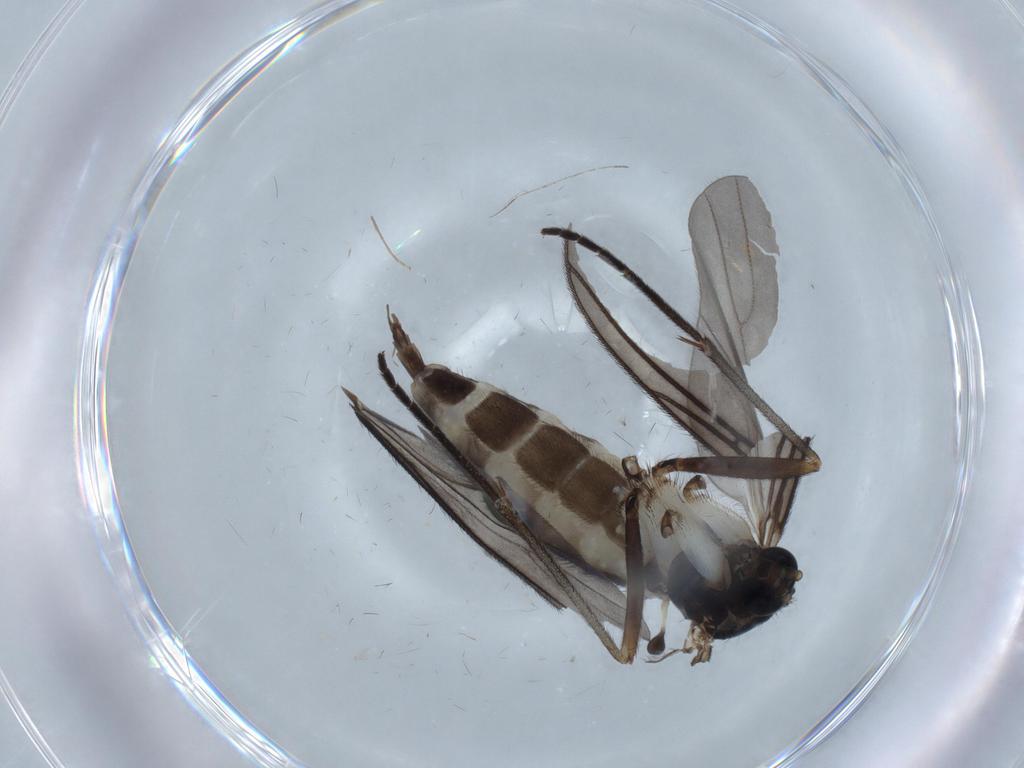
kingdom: Animalia
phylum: Arthropoda
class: Insecta
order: Diptera
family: Sciaridae
